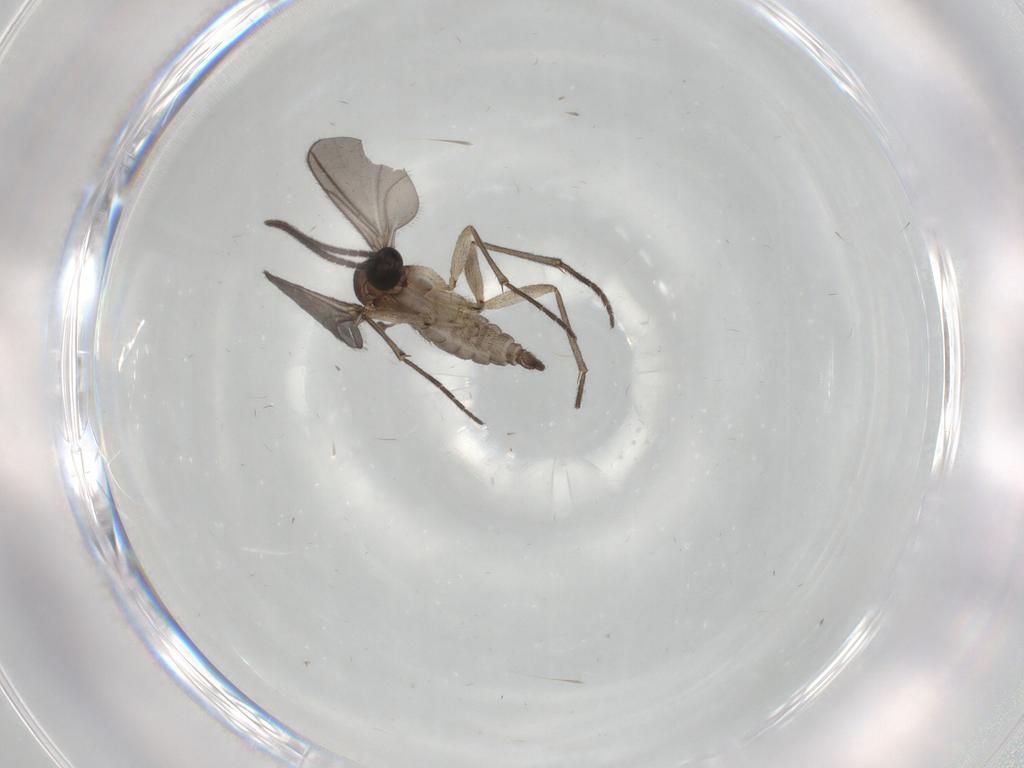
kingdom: Animalia
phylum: Arthropoda
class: Insecta
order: Diptera
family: Sciaridae
